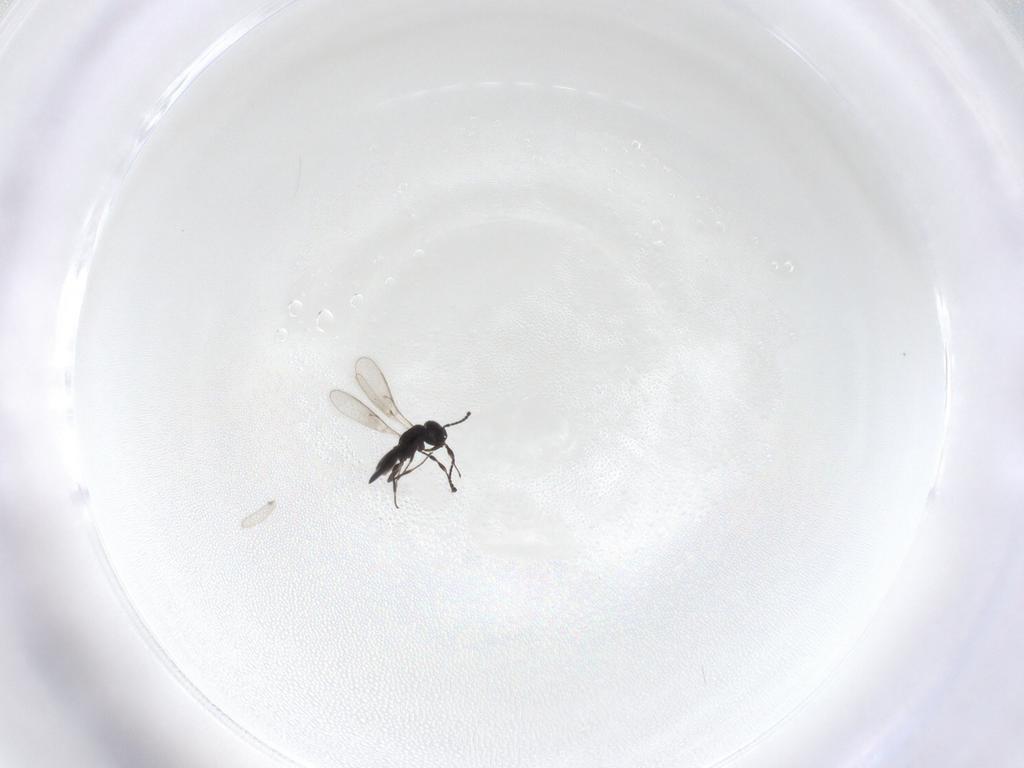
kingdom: Animalia
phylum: Arthropoda
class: Insecta
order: Hymenoptera
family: Scelionidae
